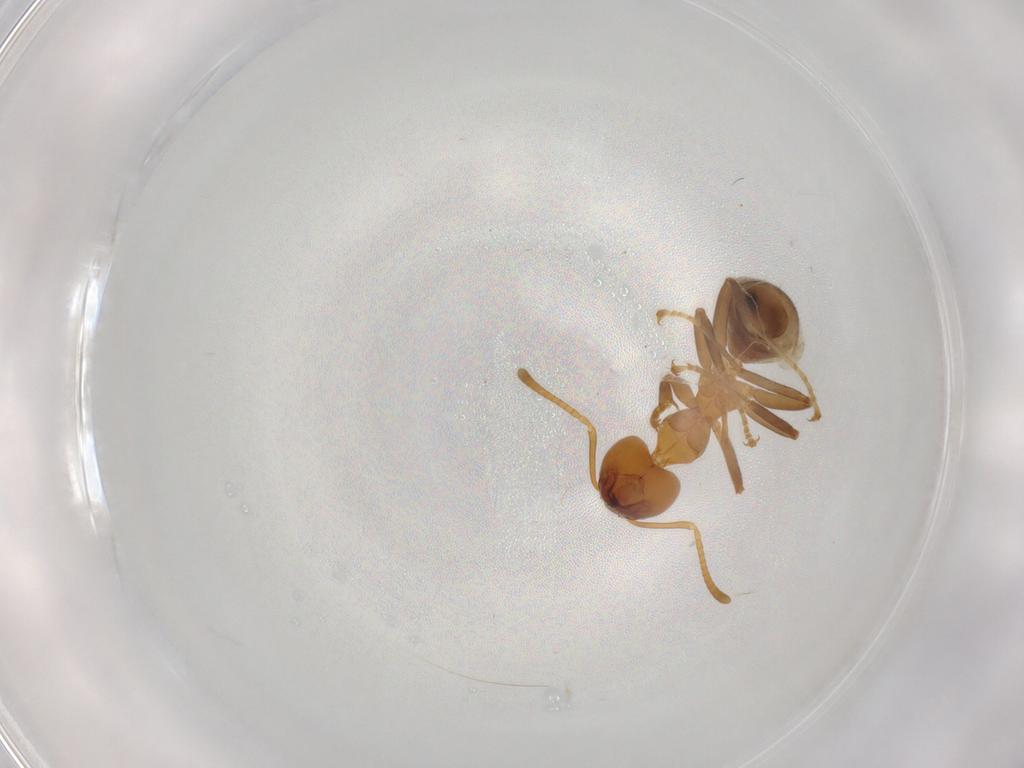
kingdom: Animalia
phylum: Arthropoda
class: Insecta
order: Hymenoptera
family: Formicidae
